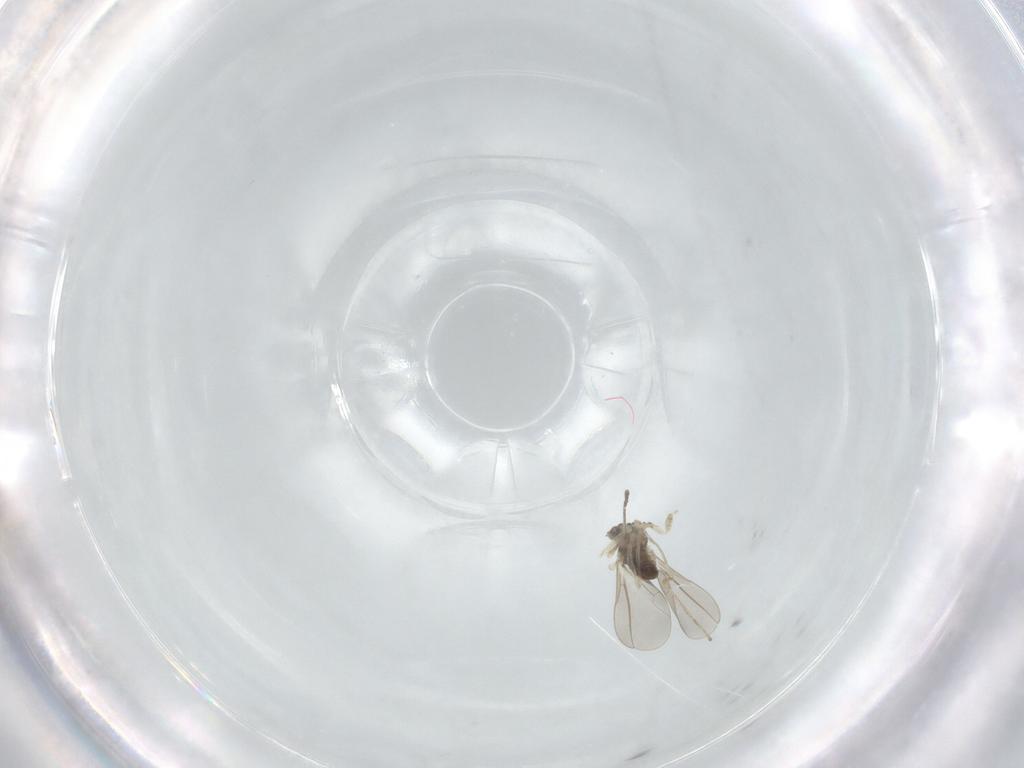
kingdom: Animalia
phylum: Arthropoda
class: Insecta
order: Diptera
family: Cecidomyiidae
